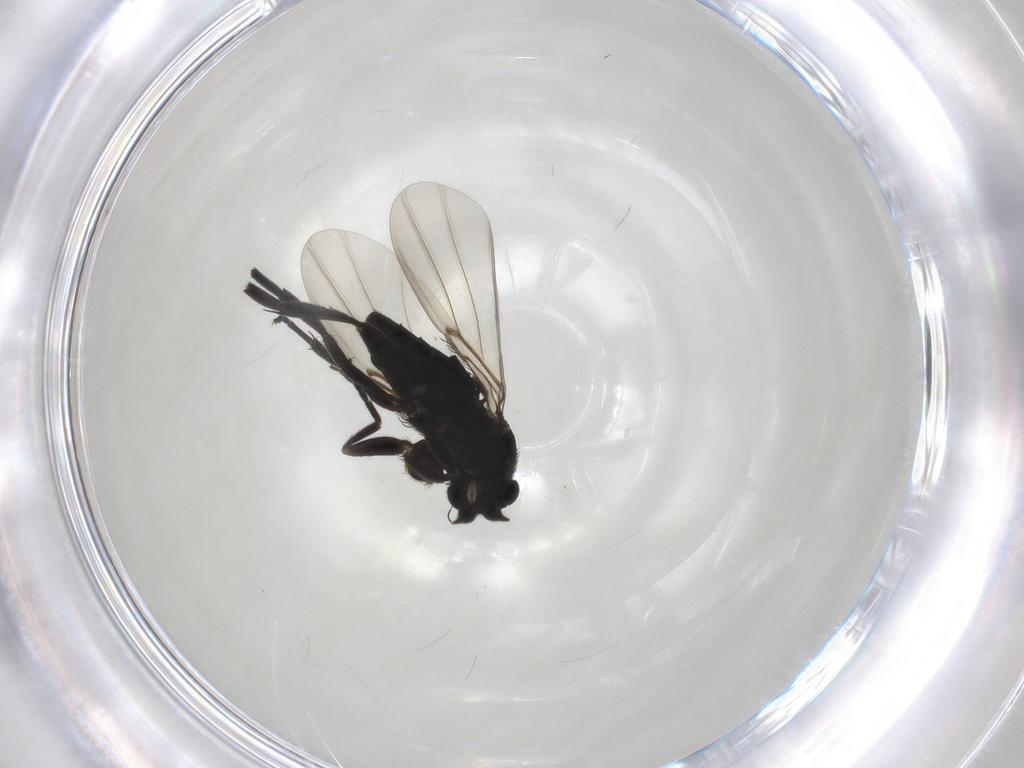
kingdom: Animalia
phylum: Arthropoda
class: Insecta
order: Diptera
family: Phoridae
